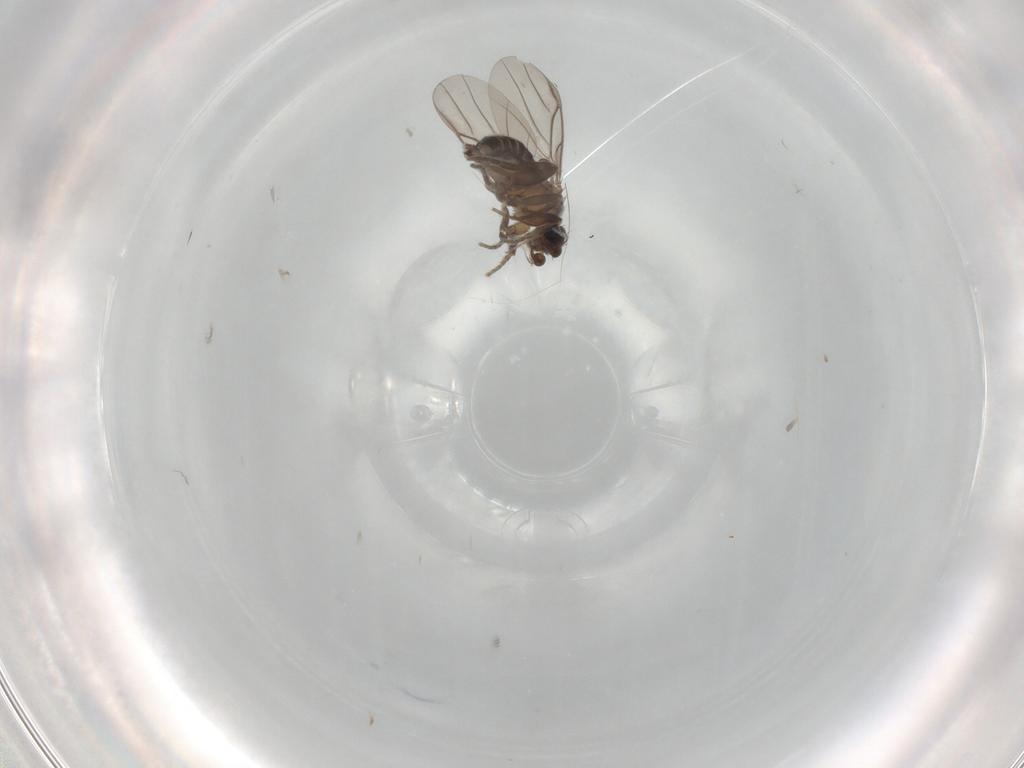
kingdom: Animalia
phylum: Arthropoda
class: Insecta
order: Diptera
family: Phoridae
